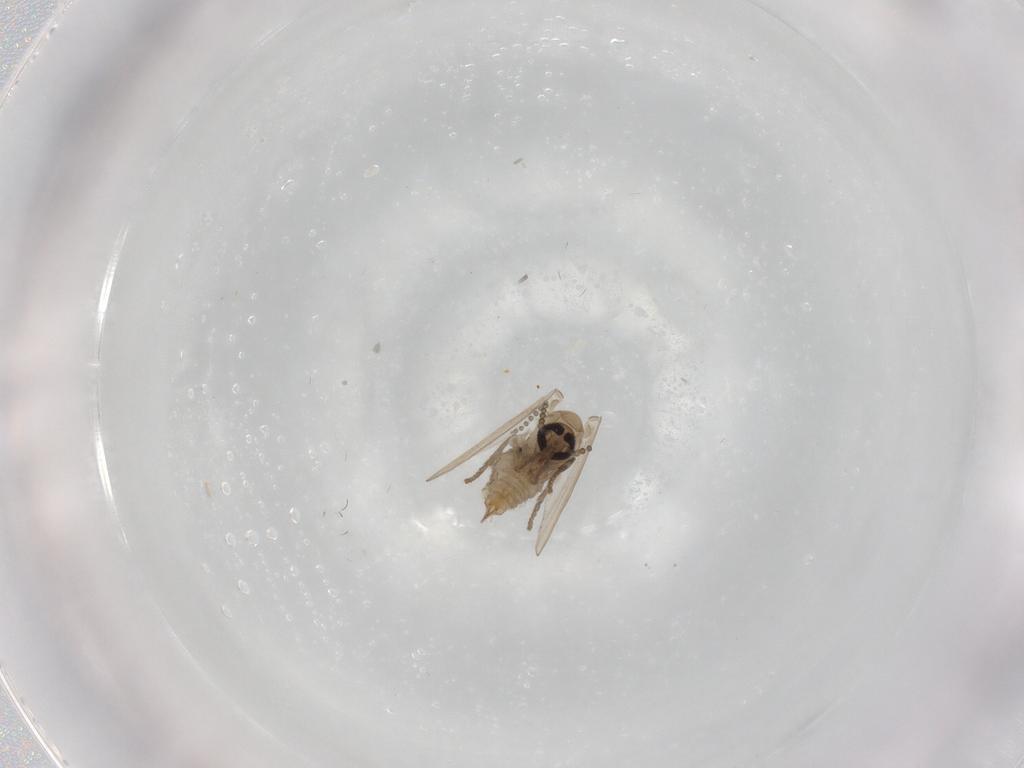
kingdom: Animalia
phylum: Arthropoda
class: Insecta
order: Diptera
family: Psychodidae
